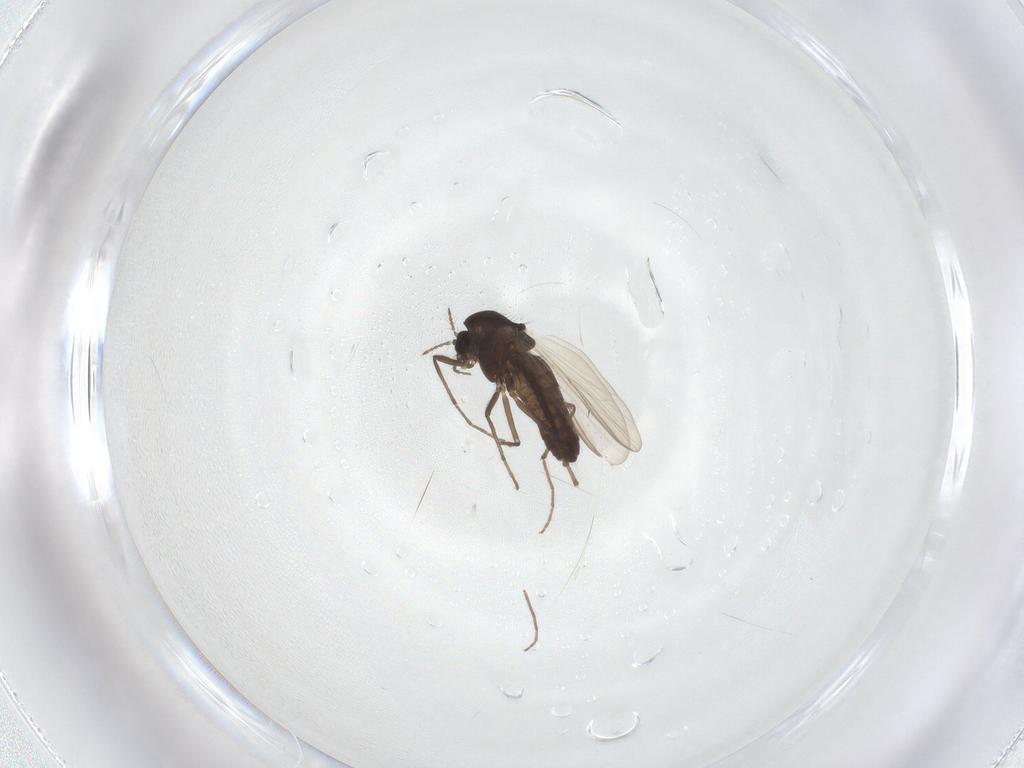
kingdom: Animalia
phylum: Arthropoda
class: Insecta
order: Diptera
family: Chironomidae
